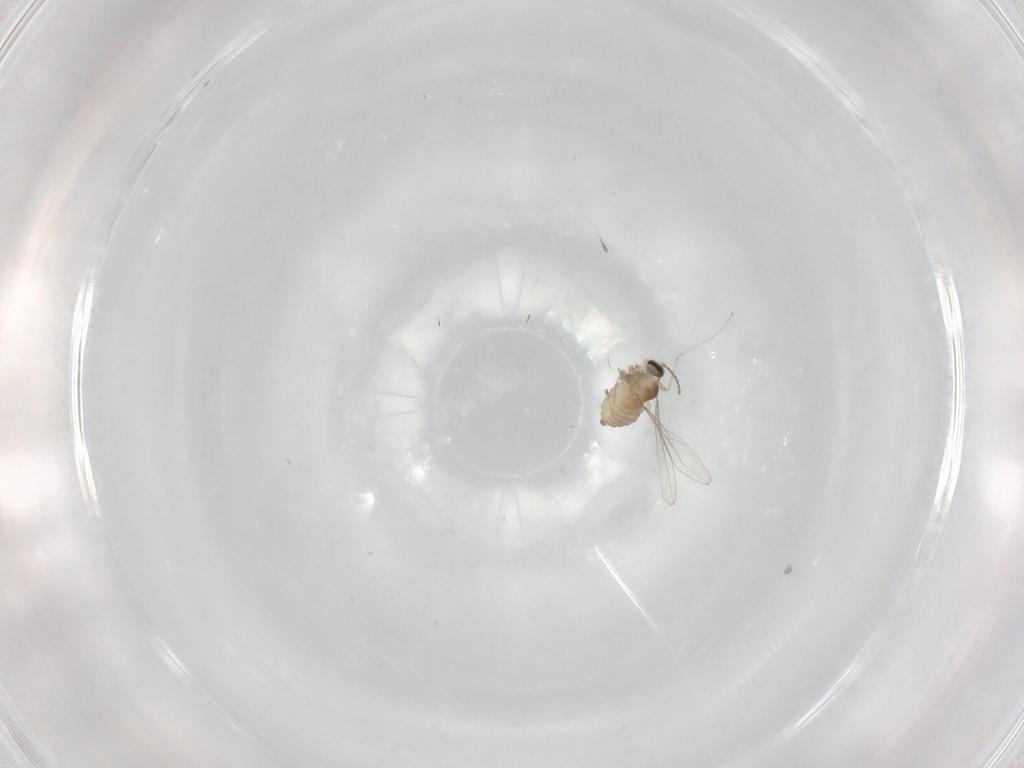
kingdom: Animalia
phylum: Arthropoda
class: Insecta
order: Diptera
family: Cecidomyiidae
